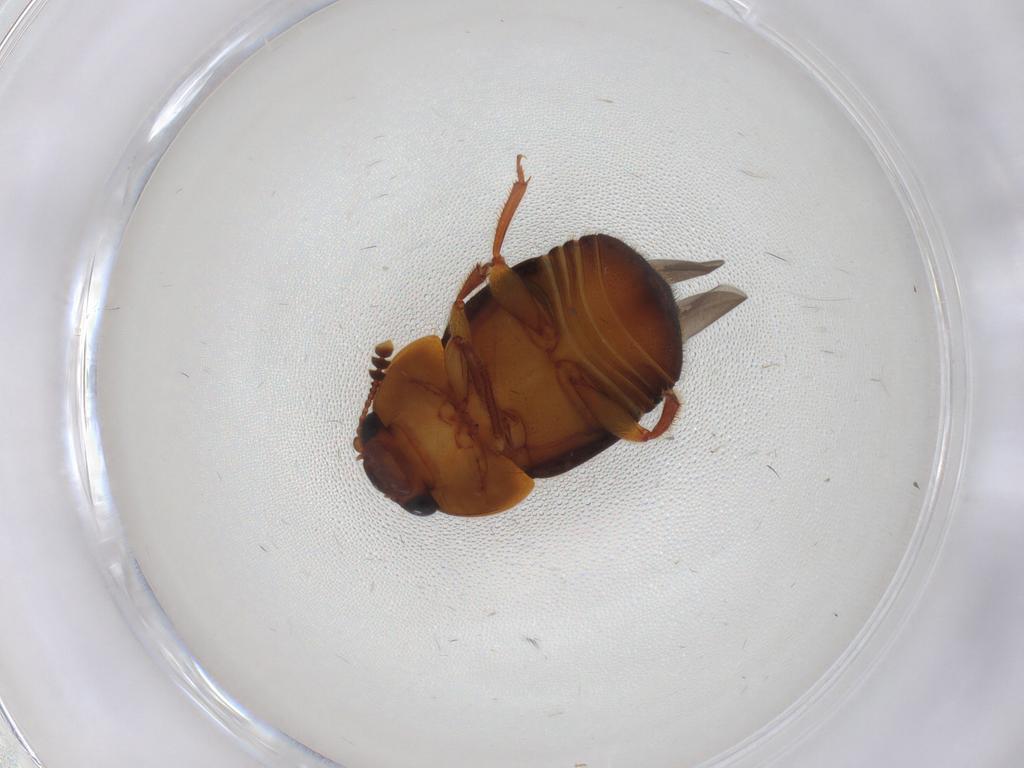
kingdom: Animalia
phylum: Arthropoda
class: Insecta
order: Coleoptera
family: Nitidulidae
